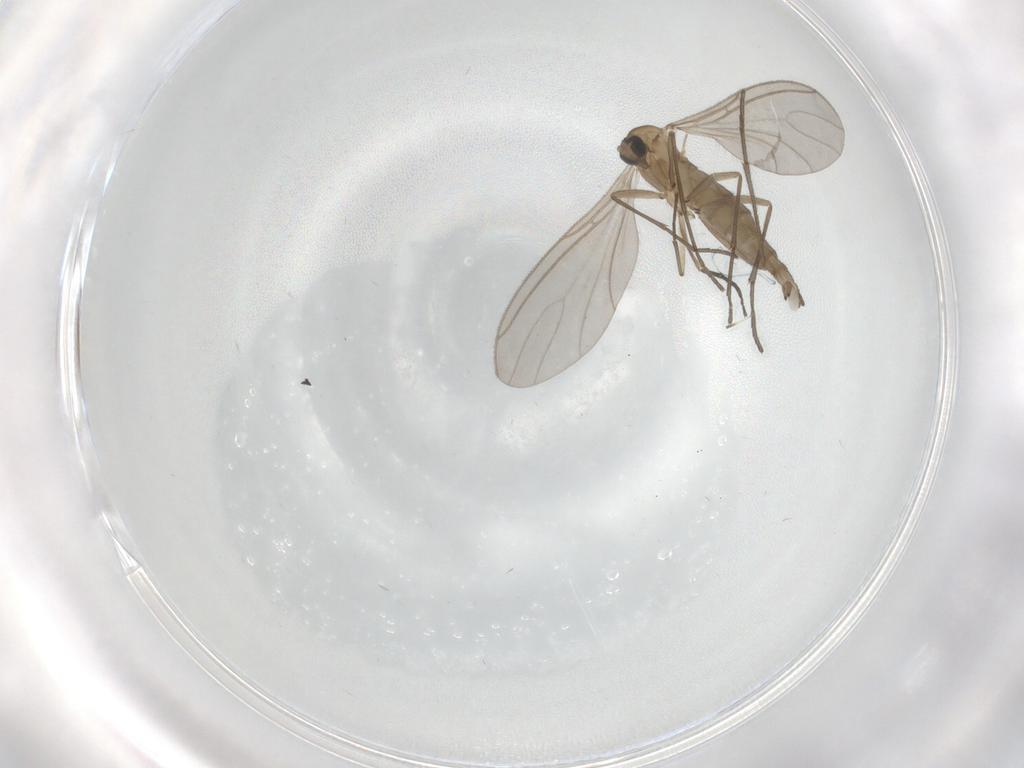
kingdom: Animalia
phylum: Arthropoda
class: Insecta
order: Diptera
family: Sciaridae
